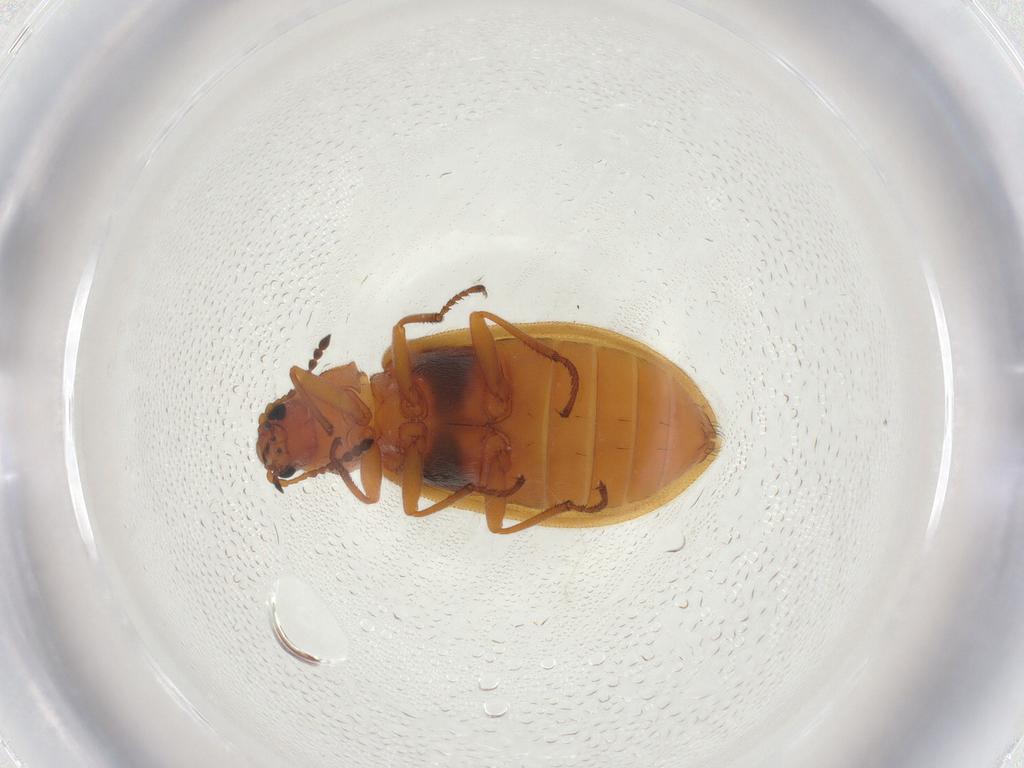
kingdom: Animalia
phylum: Arthropoda
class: Insecta
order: Coleoptera
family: Melyridae
